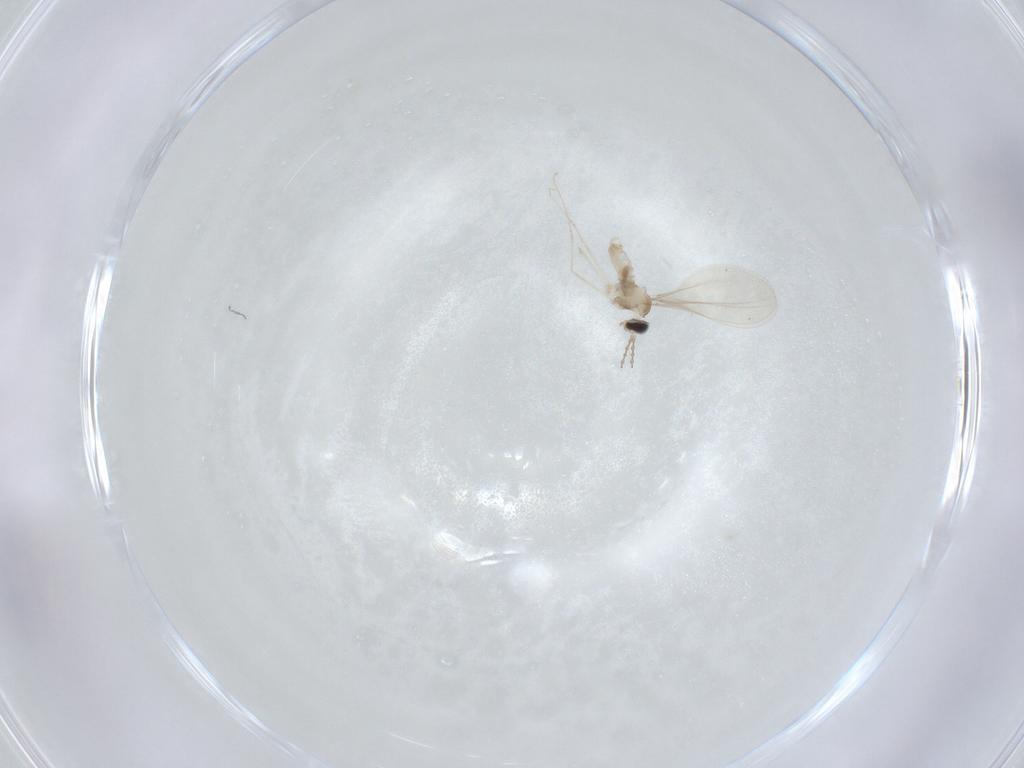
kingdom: Animalia
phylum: Arthropoda
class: Insecta
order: Diptera
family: Cecidomyiidae
